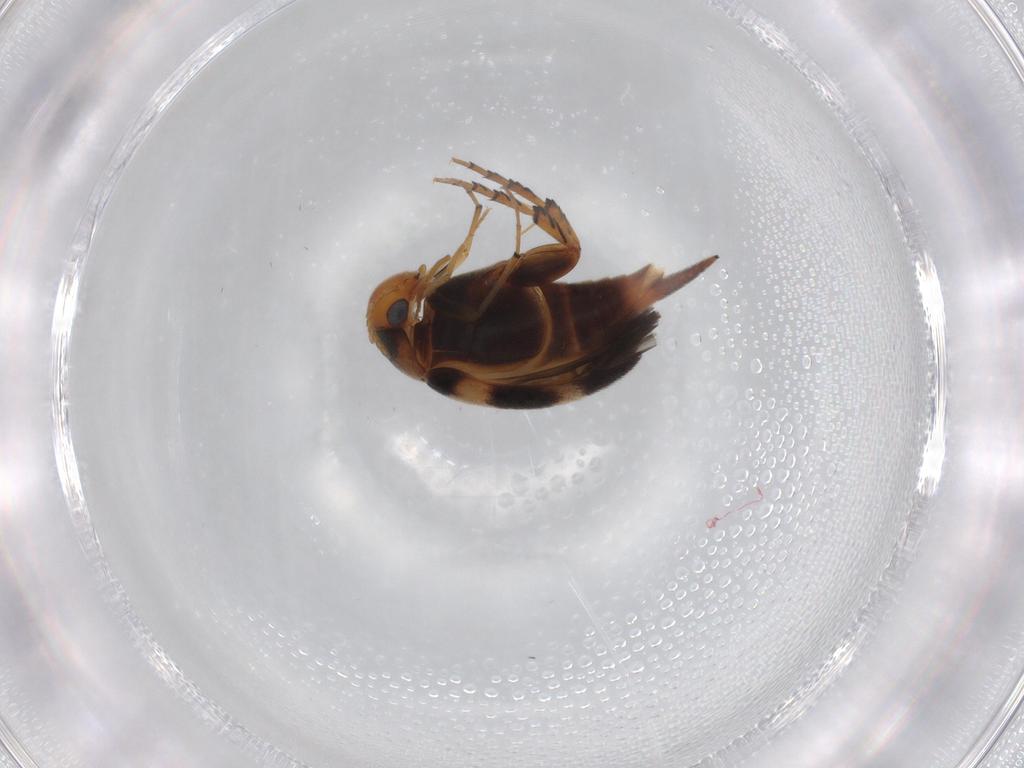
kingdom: Animalia
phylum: Arthropoda
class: Insecta
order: Coleoptera
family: Mordellidae
